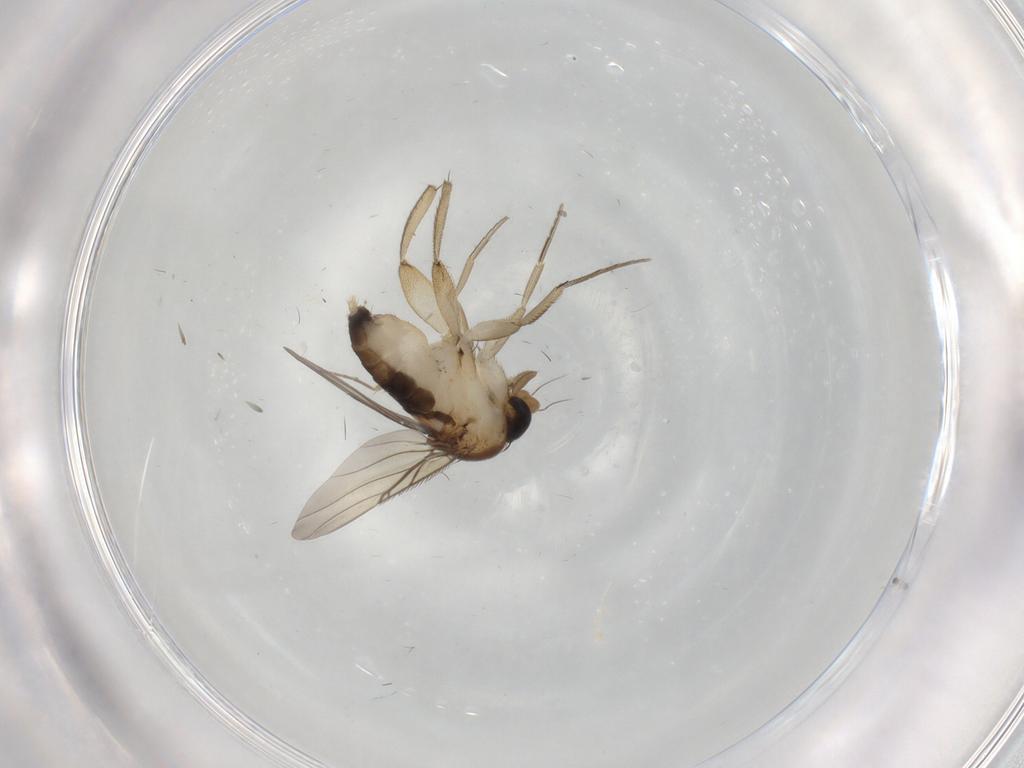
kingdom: Animalia
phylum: Arthropoda
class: Insecta
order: Diptera
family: Phoridae
